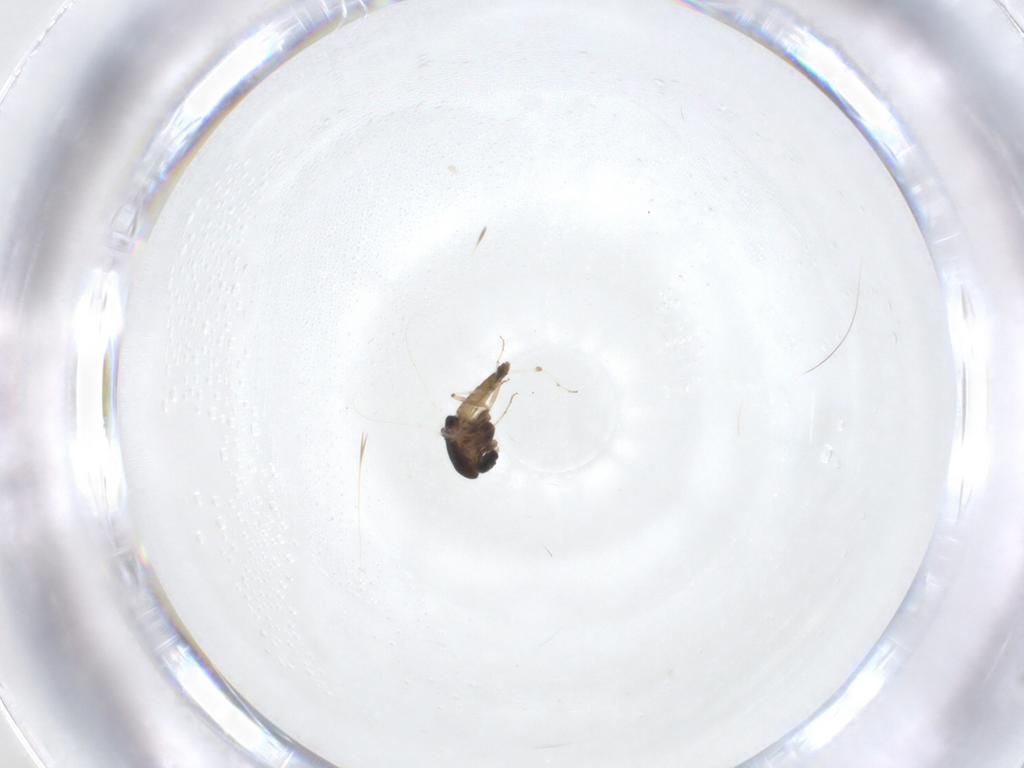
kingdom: Animalia
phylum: Arthropoda
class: Insecta
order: Diptera
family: Chironomidae
